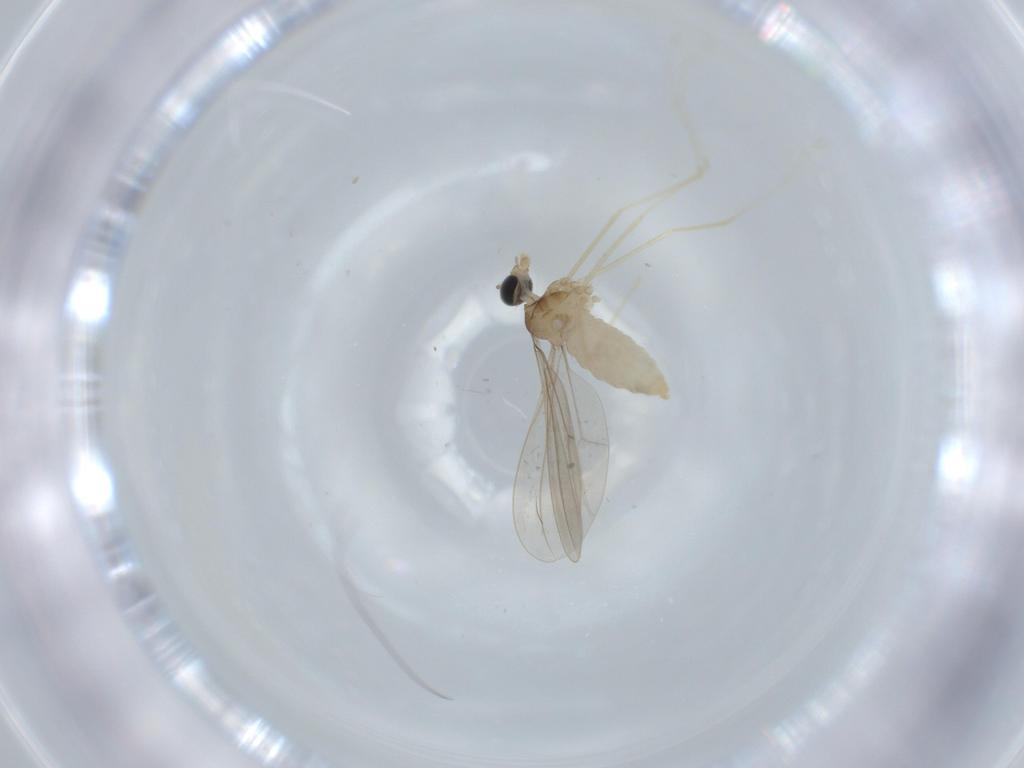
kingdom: Animalia
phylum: Arthropoda
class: Insecta
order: Diptera
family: Cecidomyiidae
